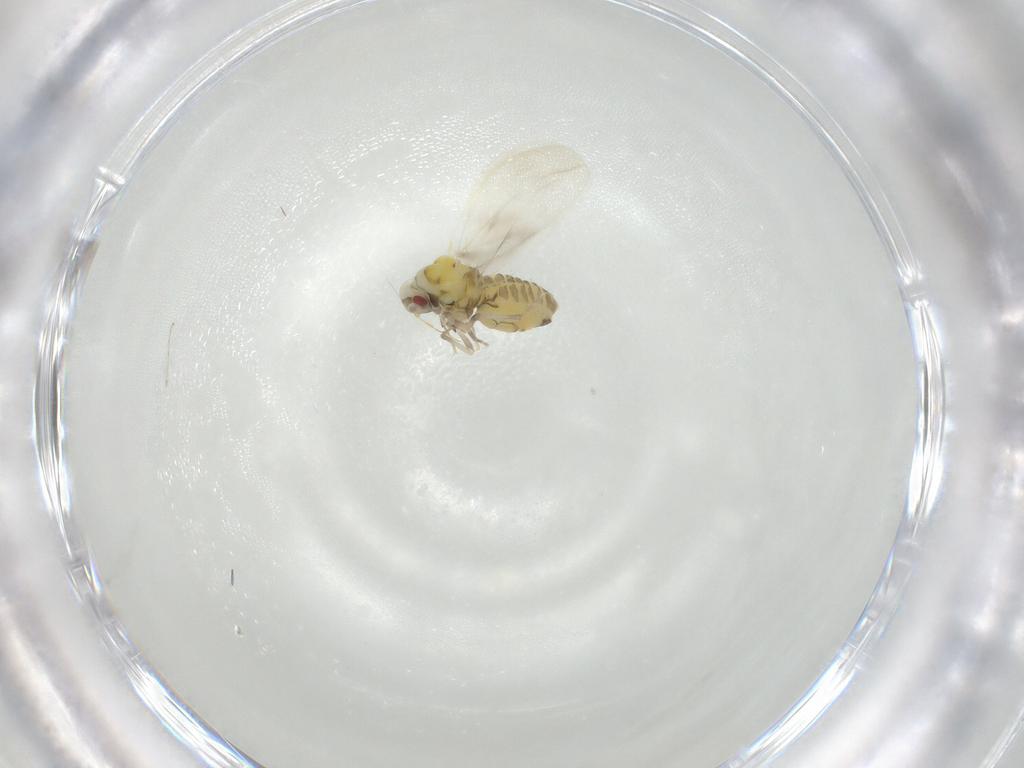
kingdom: Animalia
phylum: Arthropoda
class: Insecta
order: Hemiptera
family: Aleyrodidae
